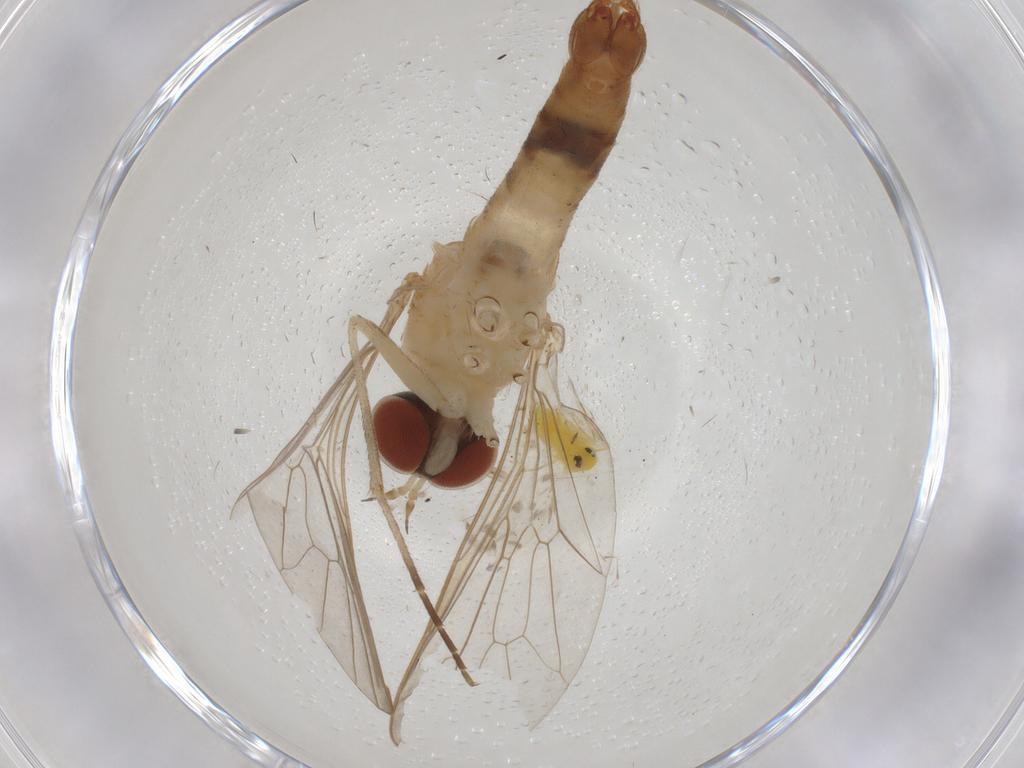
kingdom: Animalia
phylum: Arthropoda
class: Insecta
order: Diptera
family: Apsilocephalidae
